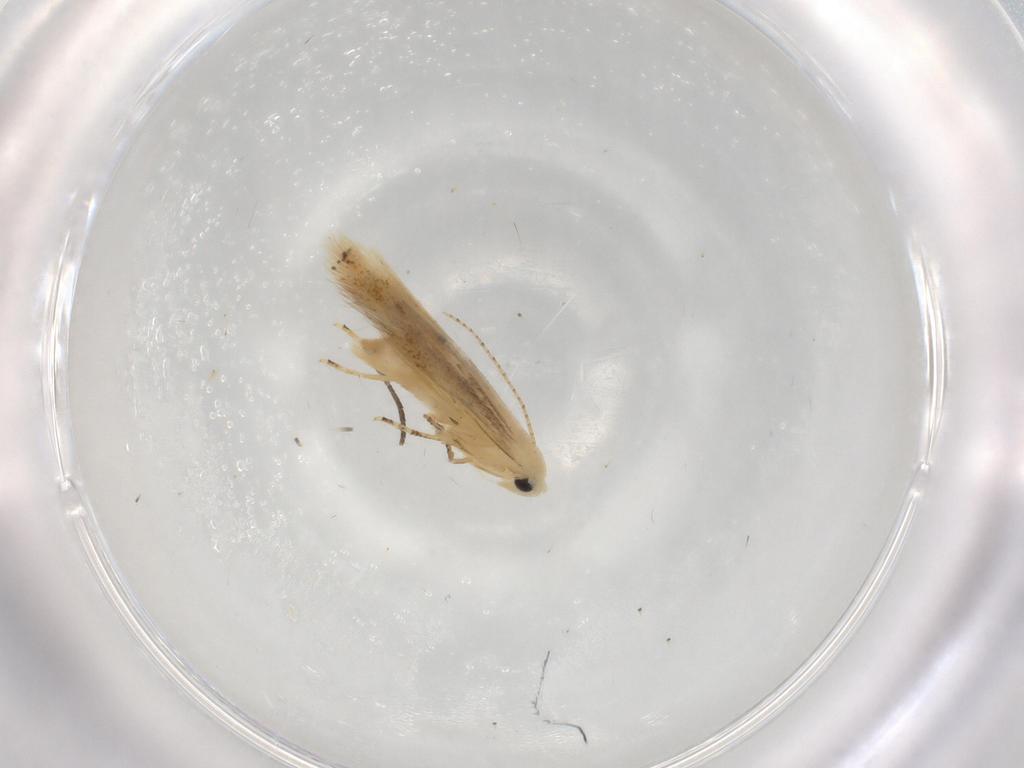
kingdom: Animalia
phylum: Arthropoda
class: Insecta
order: Lepidoptera
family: Bucculatricidae
